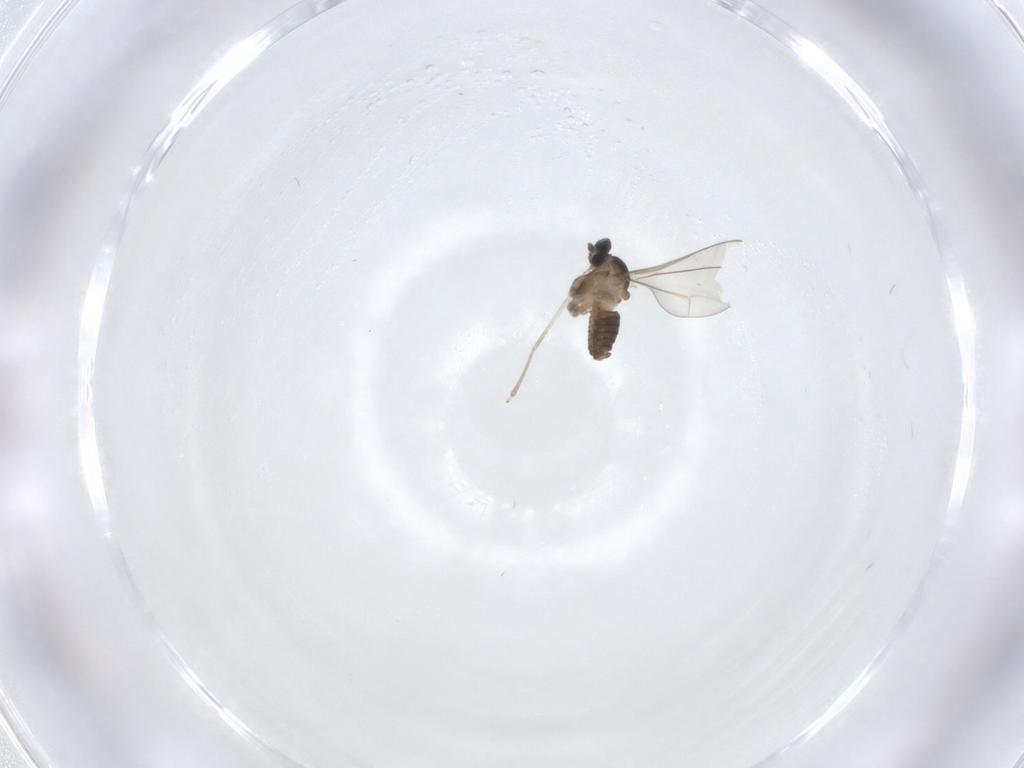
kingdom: Animalia
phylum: Arthropoda
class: Insecta
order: Diptera
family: Cecidomyiidae
